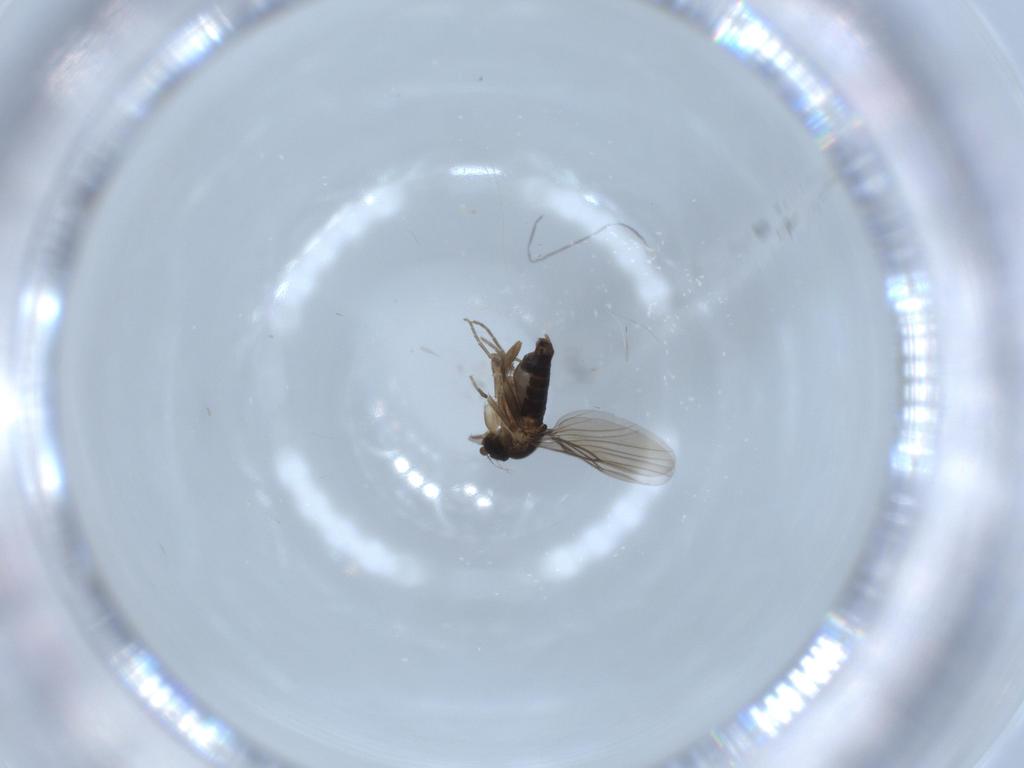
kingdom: Animalia
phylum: Arthropoda
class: Insecta
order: Diptera
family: Phoridae
